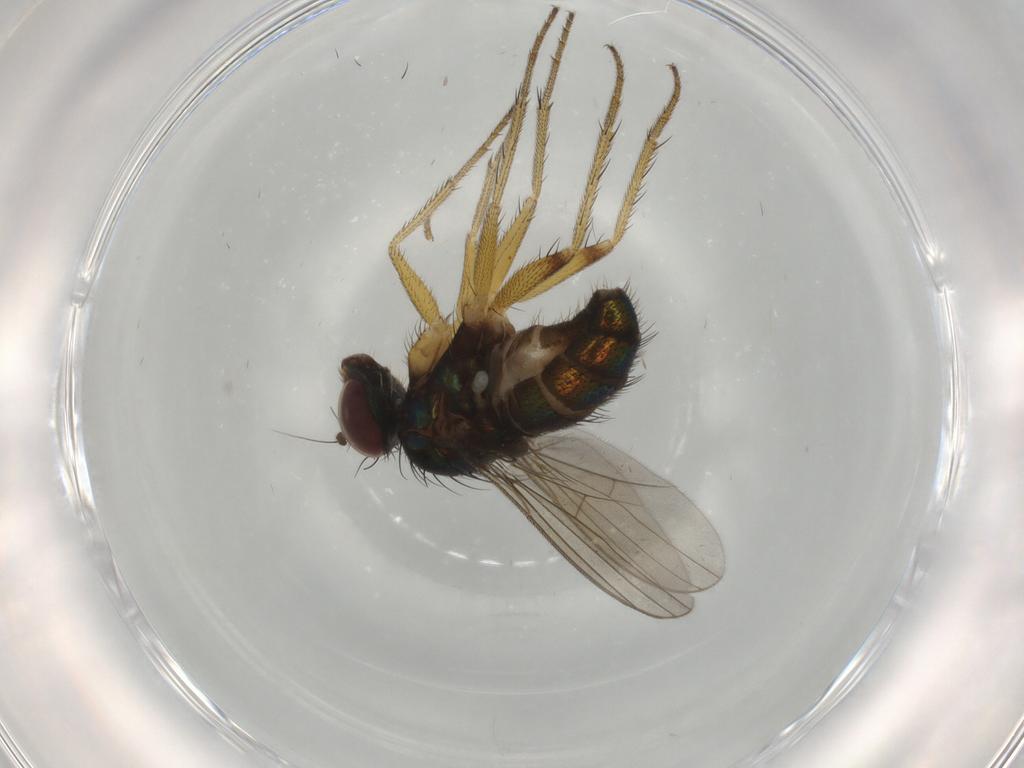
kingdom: Animalia
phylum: Arthropoda
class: Insecta
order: Diptera
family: Dolichopodidae
